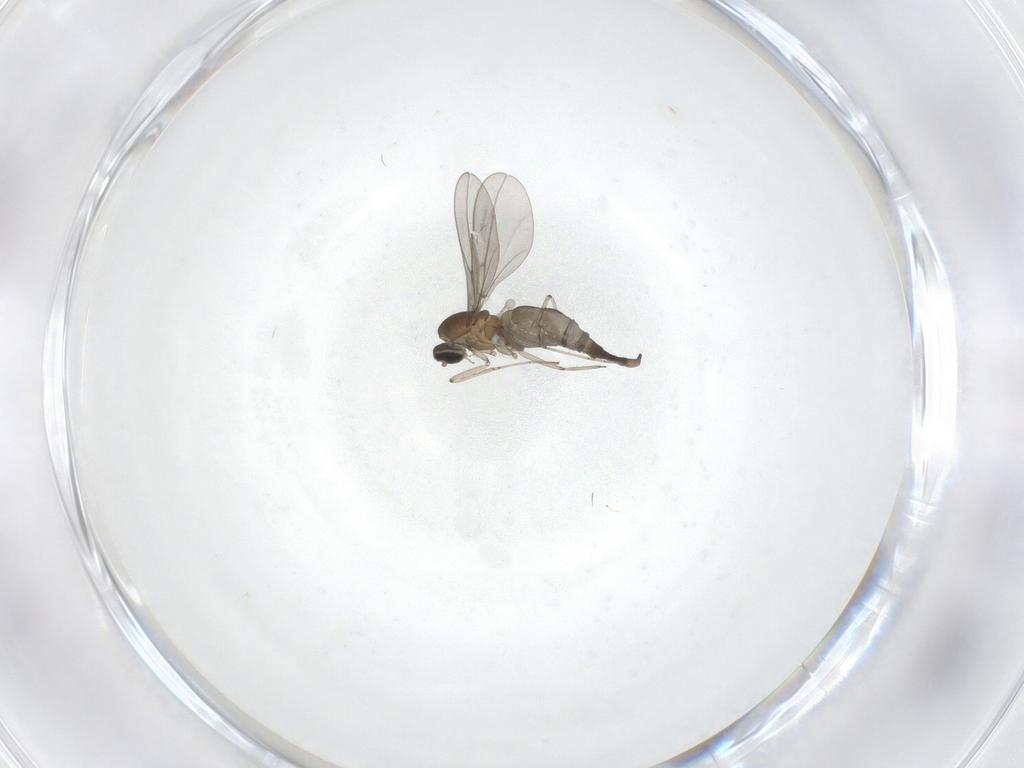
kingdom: Animalia
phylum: Arthropoda
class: Insecta
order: Diptera
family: Cecidomyiidae
